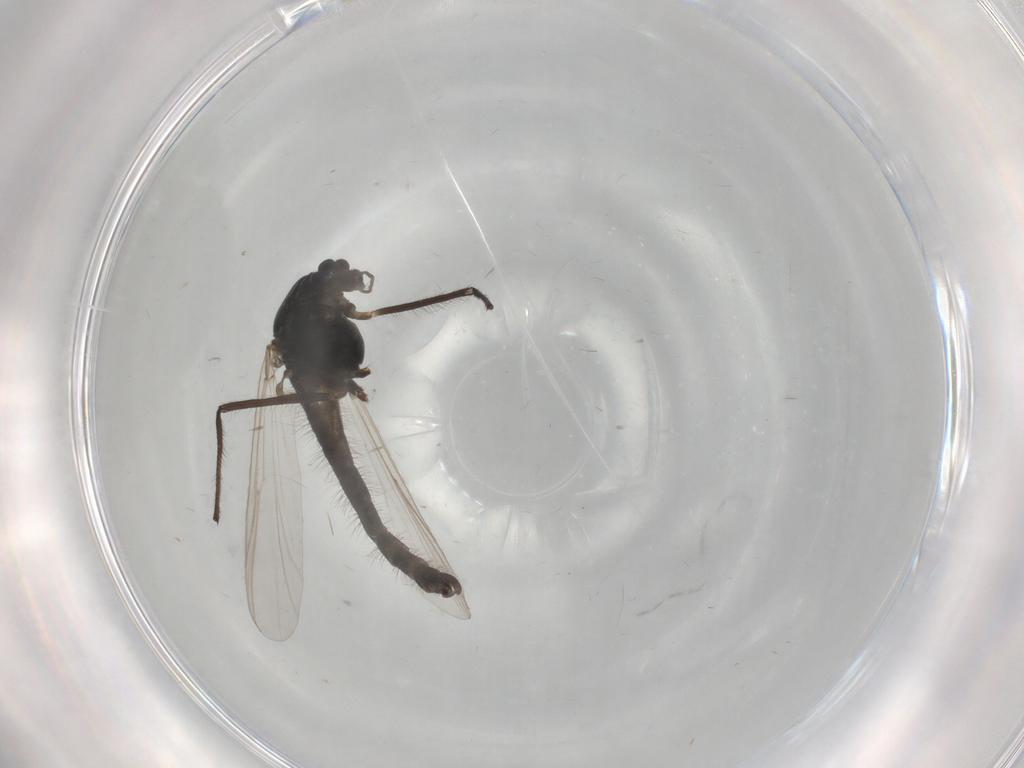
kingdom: Animalia
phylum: Arthropoda
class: Insecta
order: Diptera
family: Chironomidae
